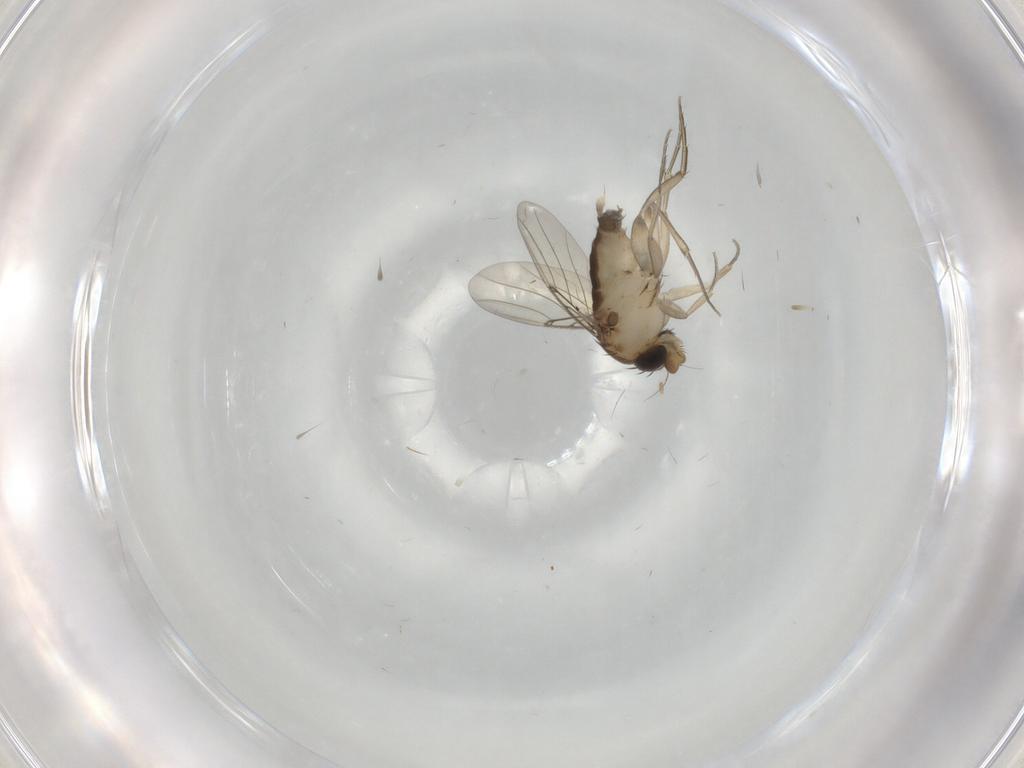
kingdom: Animalia
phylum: Arthropoda
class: Insecta
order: Diptera
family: Phoridae
